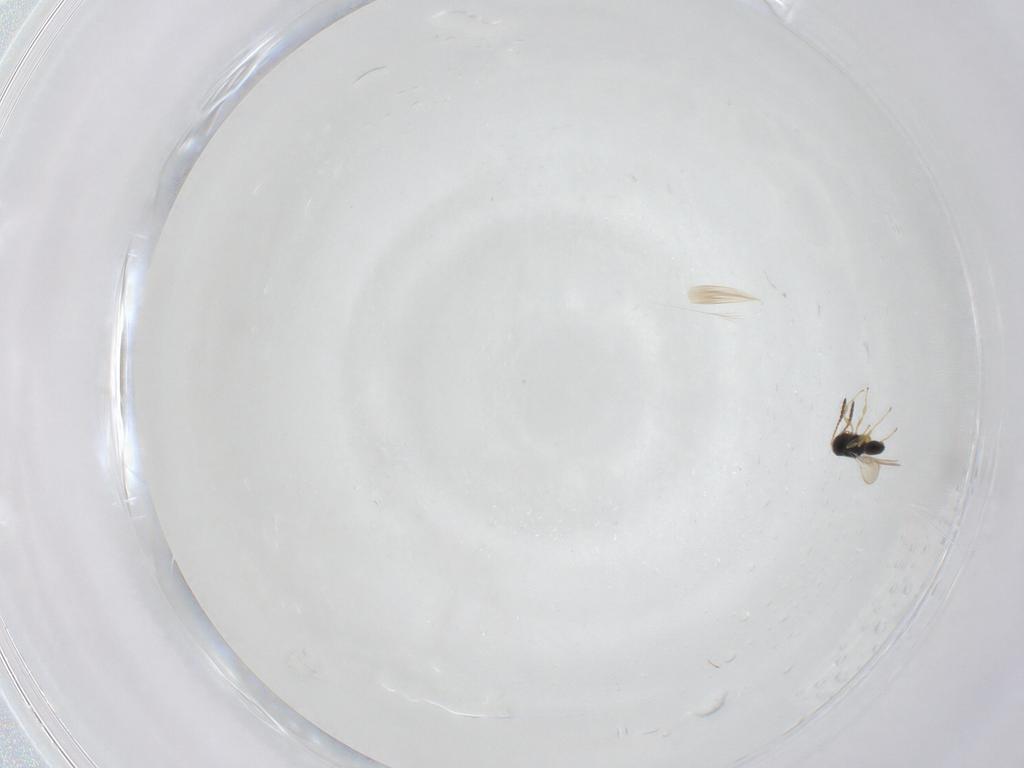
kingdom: Animalia
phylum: Arthropoda
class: Insecta
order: Hymenoptera
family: Scelionidae
